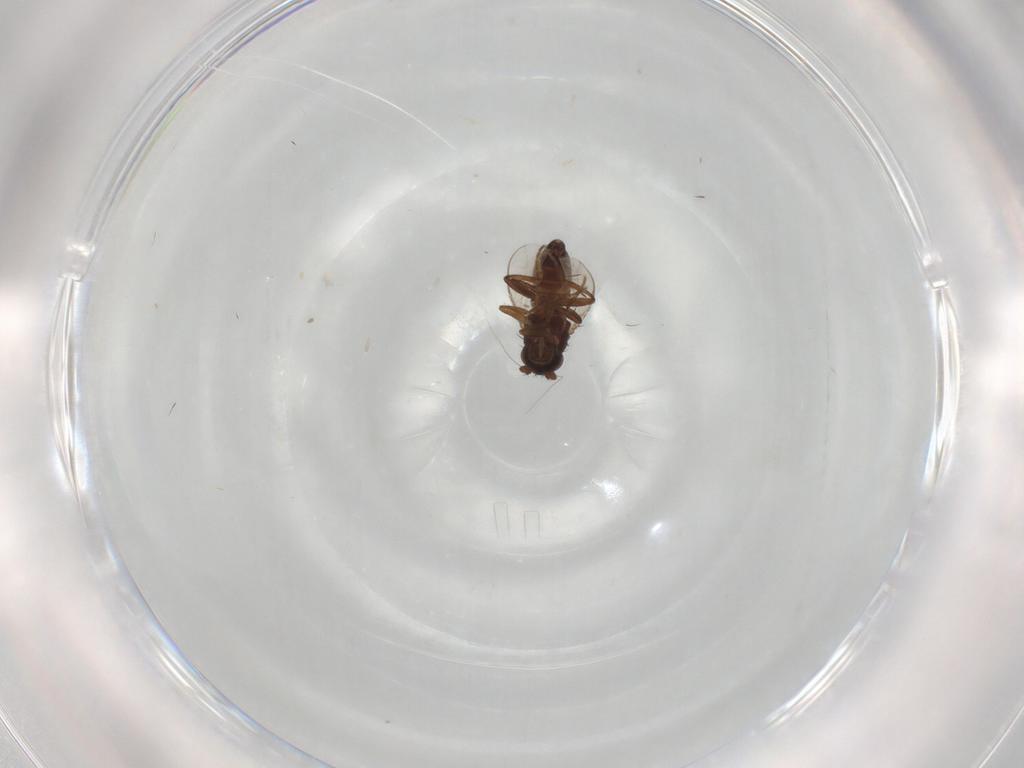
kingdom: Animalia
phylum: Arthropoda
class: Insecta
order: Diptera
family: Sphaeroceridae
